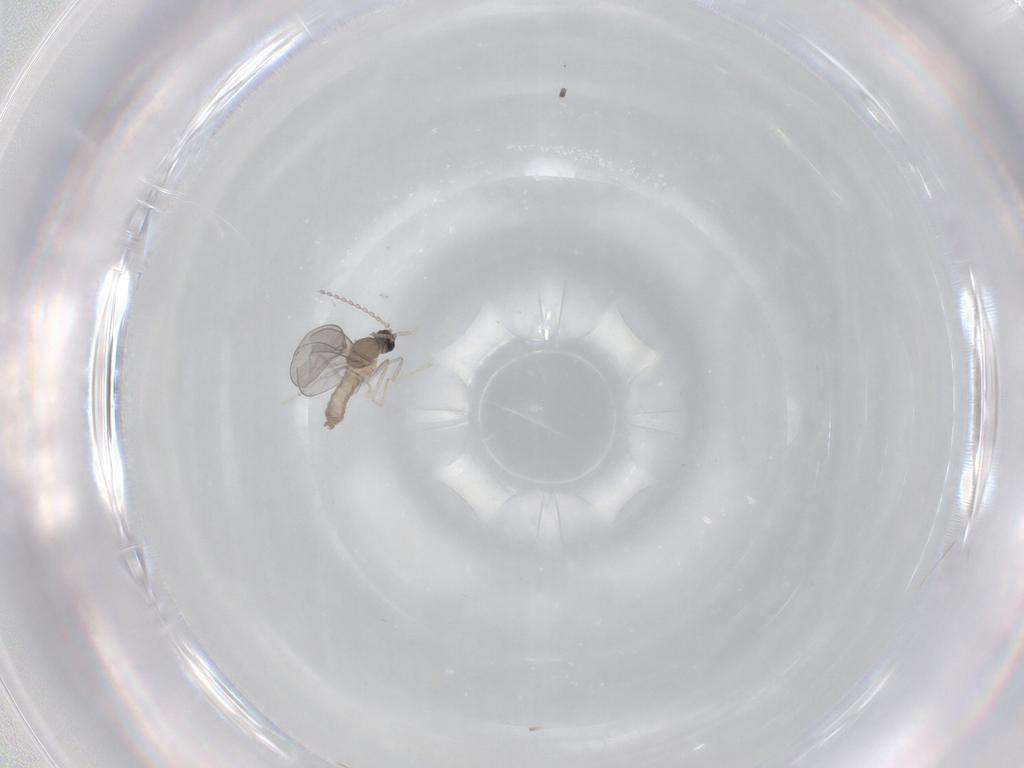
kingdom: Animalia
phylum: Arthropoda
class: Insecta
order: Diptera
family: Cecidomyiidae
